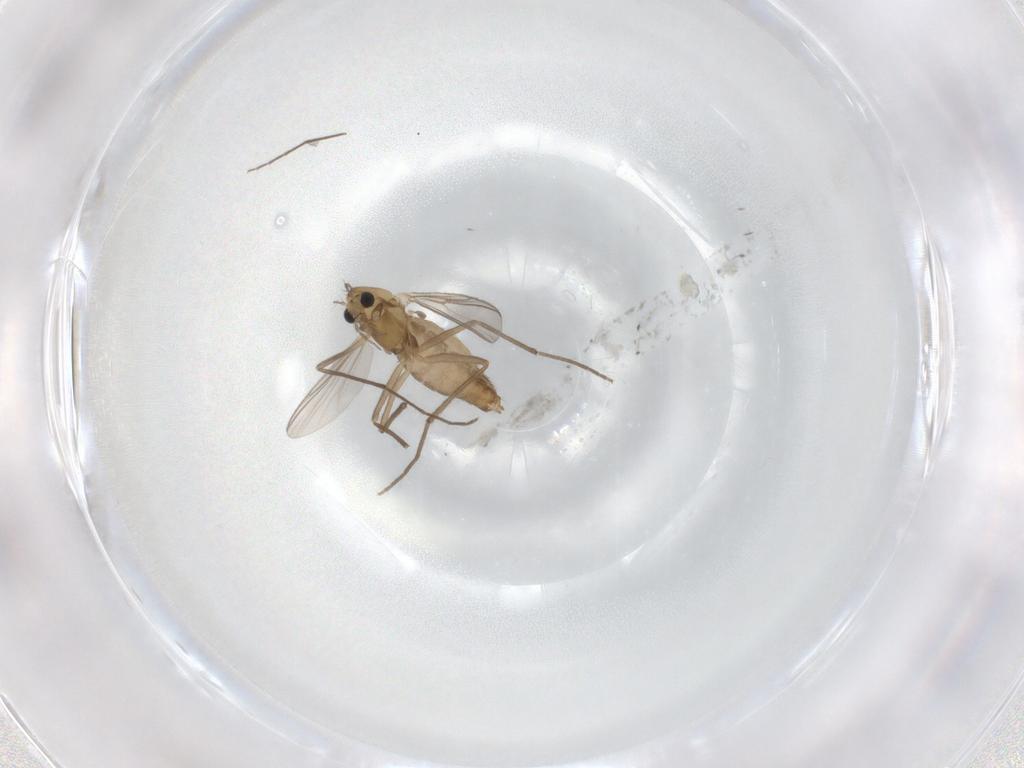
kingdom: Animalia
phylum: Arthropoda
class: Insecta
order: Diptera
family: Chironomidae
